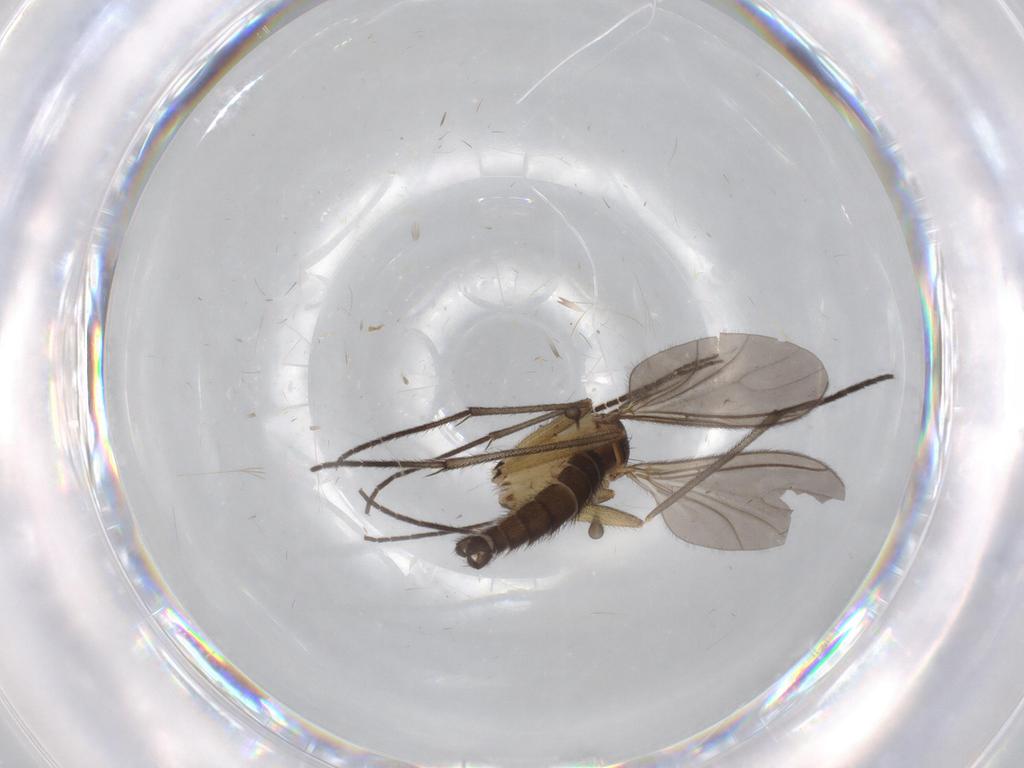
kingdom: Animalia
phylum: Arthropoda
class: Insecta
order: Diptera
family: Sciaridae
